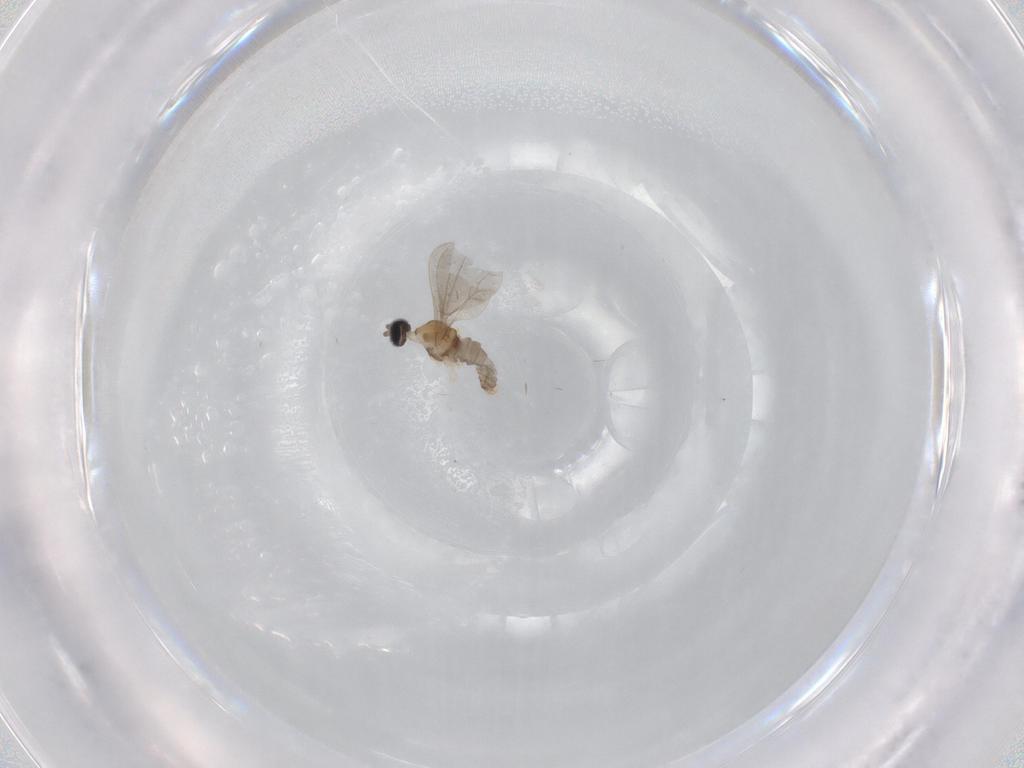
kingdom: Animalia
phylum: Arthropoda
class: Insecta
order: Diptera
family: Cecidomyiidae
